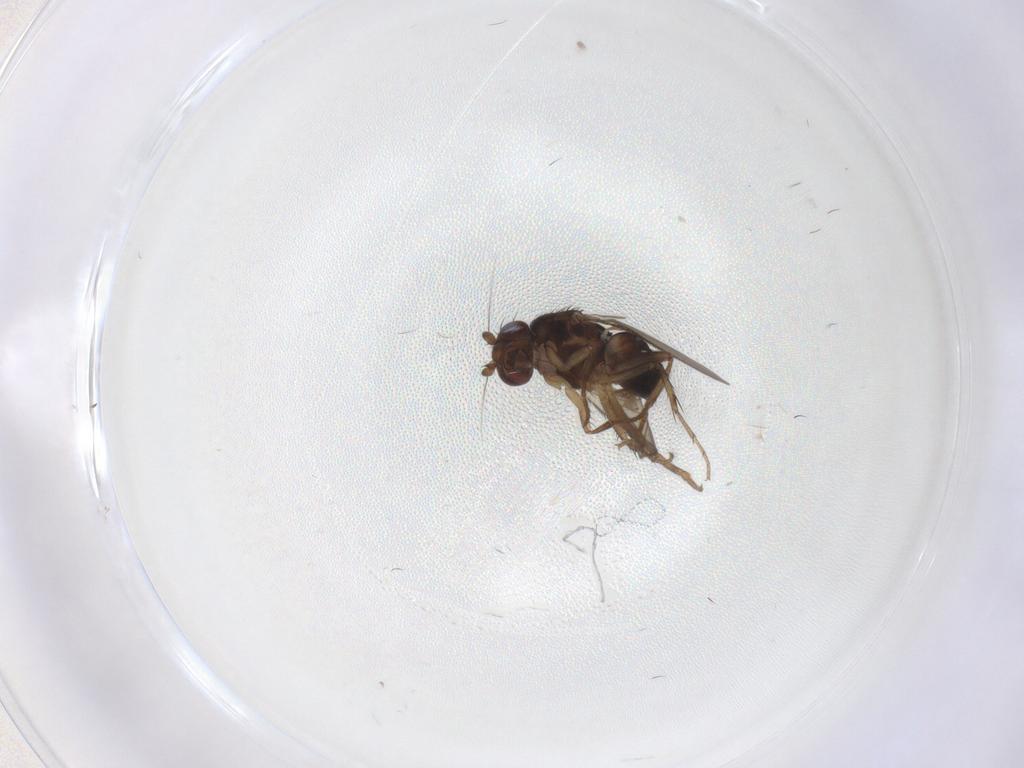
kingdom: Animalia
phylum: Arthropoda
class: Insecta
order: Diptera
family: Sphaeroceridae
